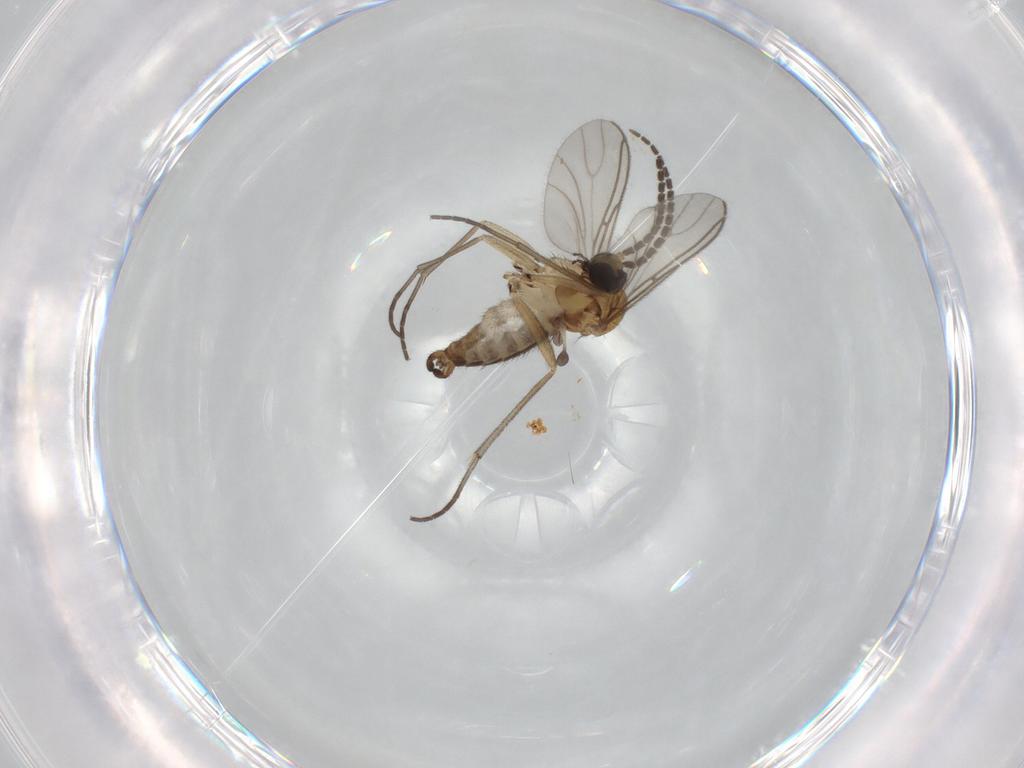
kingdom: Animalia
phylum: Arthropoda
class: Insecta
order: Diptera
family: Sciaridae
